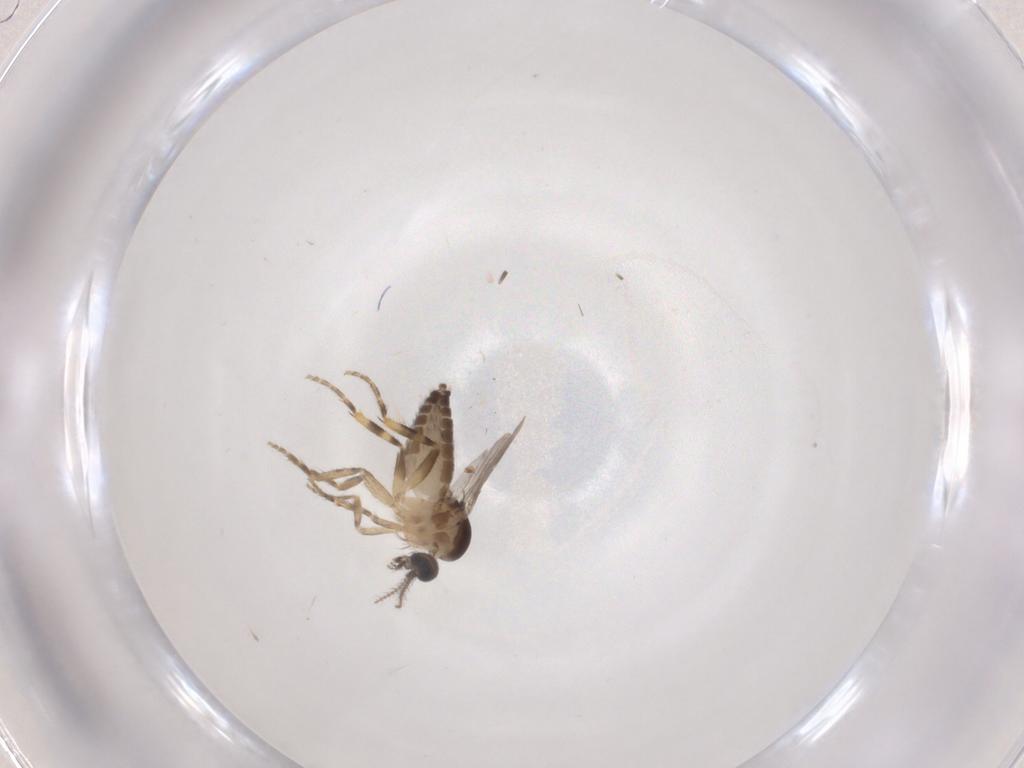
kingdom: Animalia
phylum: Arthropoda
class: Insecta
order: Diptera
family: Ceratopogonidae
